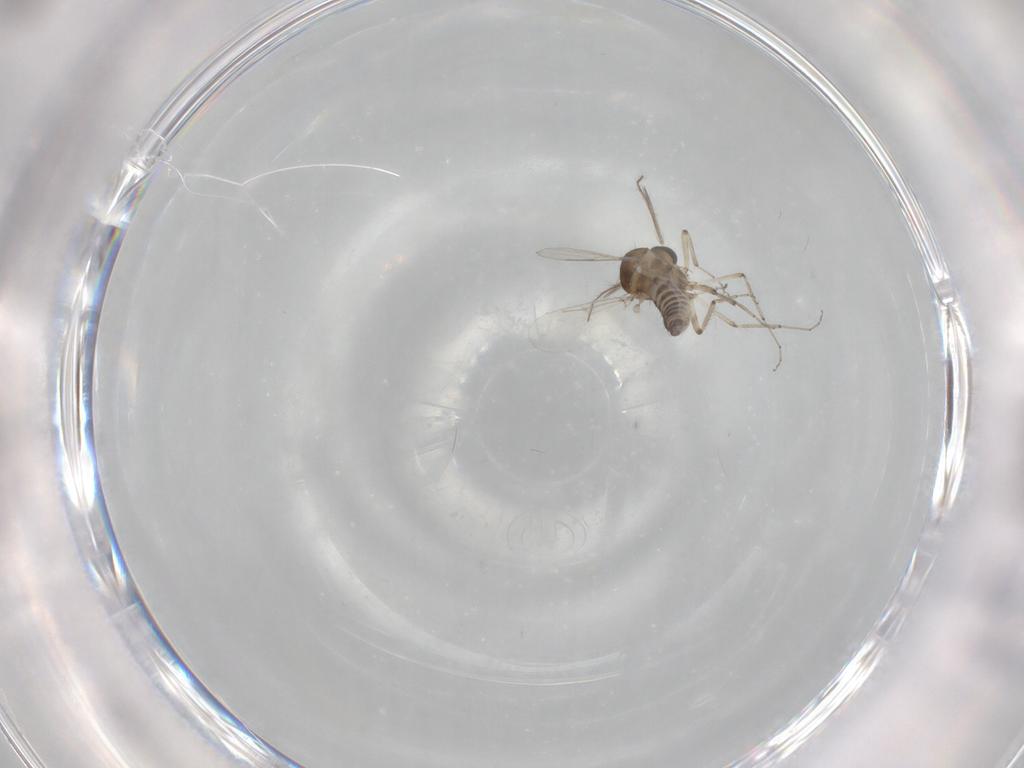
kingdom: Animalia
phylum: Arthropoda
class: Insecta
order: Diptera
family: Ceratopogonidae
